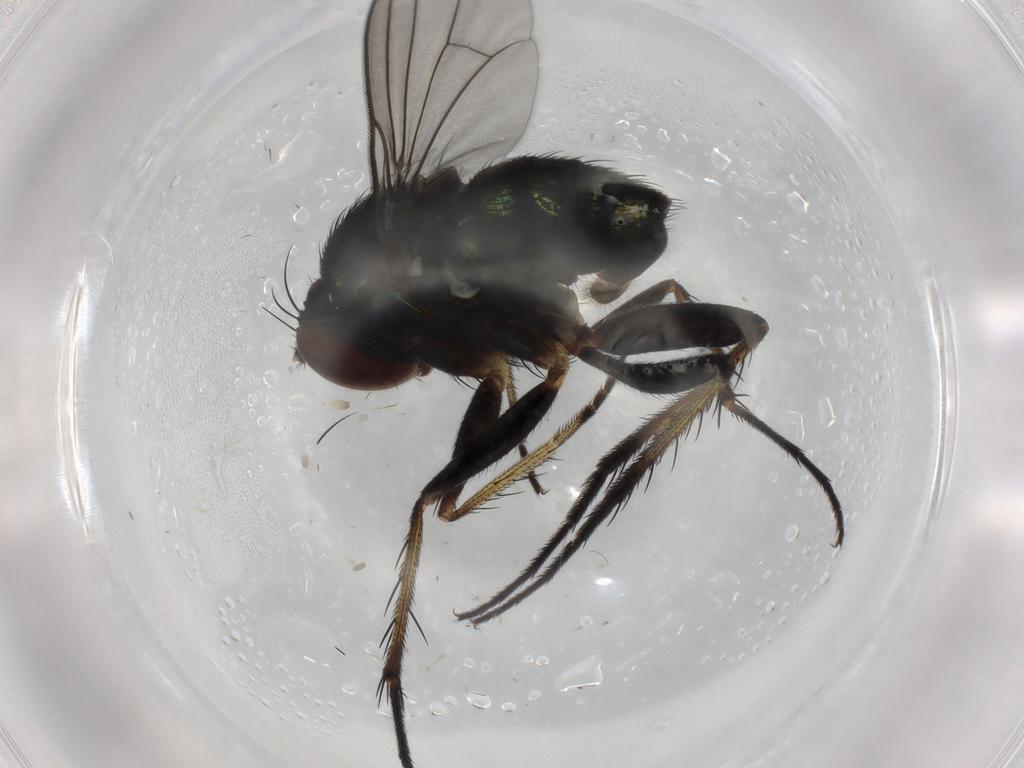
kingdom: Animalia
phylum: Arthropoda
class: Insecta
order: Diptera
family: Dolichopodidae
